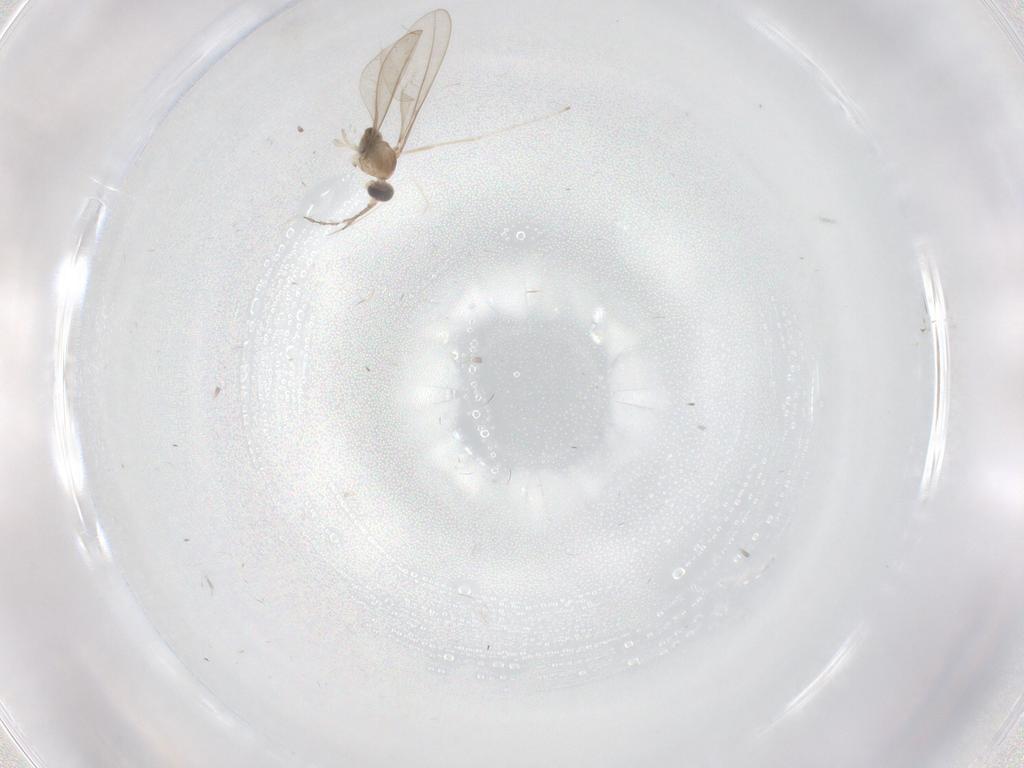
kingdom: Animalia
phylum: Arthropoda
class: Insecta
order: Diptera
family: Cecidomyiidae
